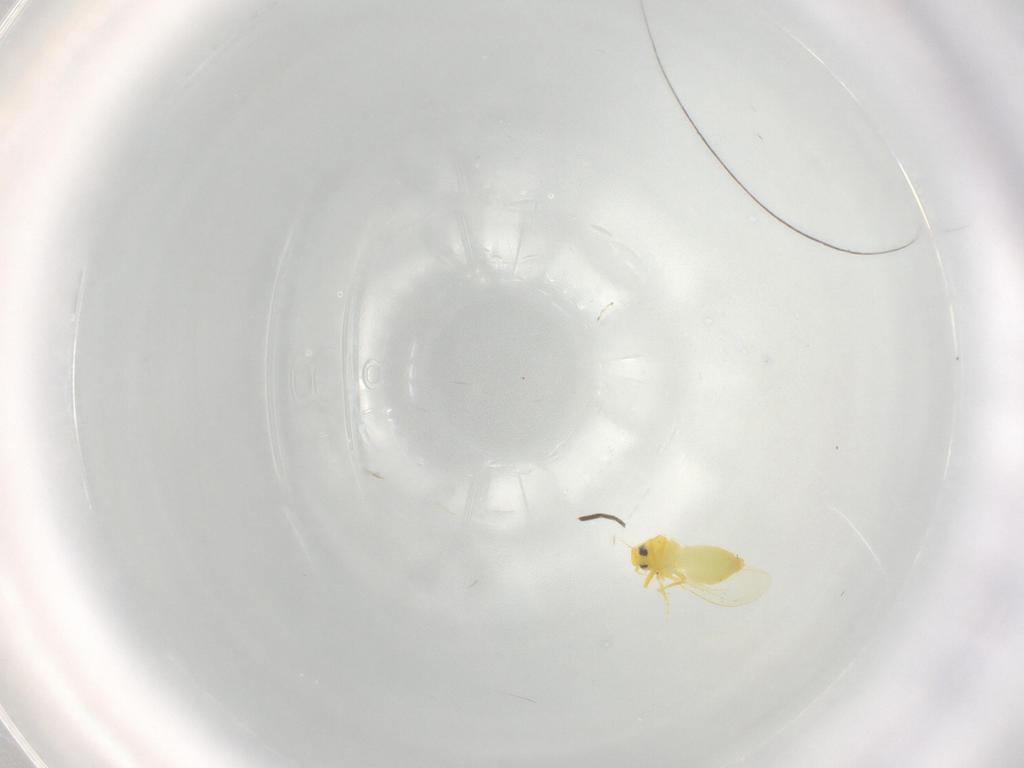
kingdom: Animalia
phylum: Arthropoda
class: Insecta
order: Hemiptera
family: Aleyrodidae
